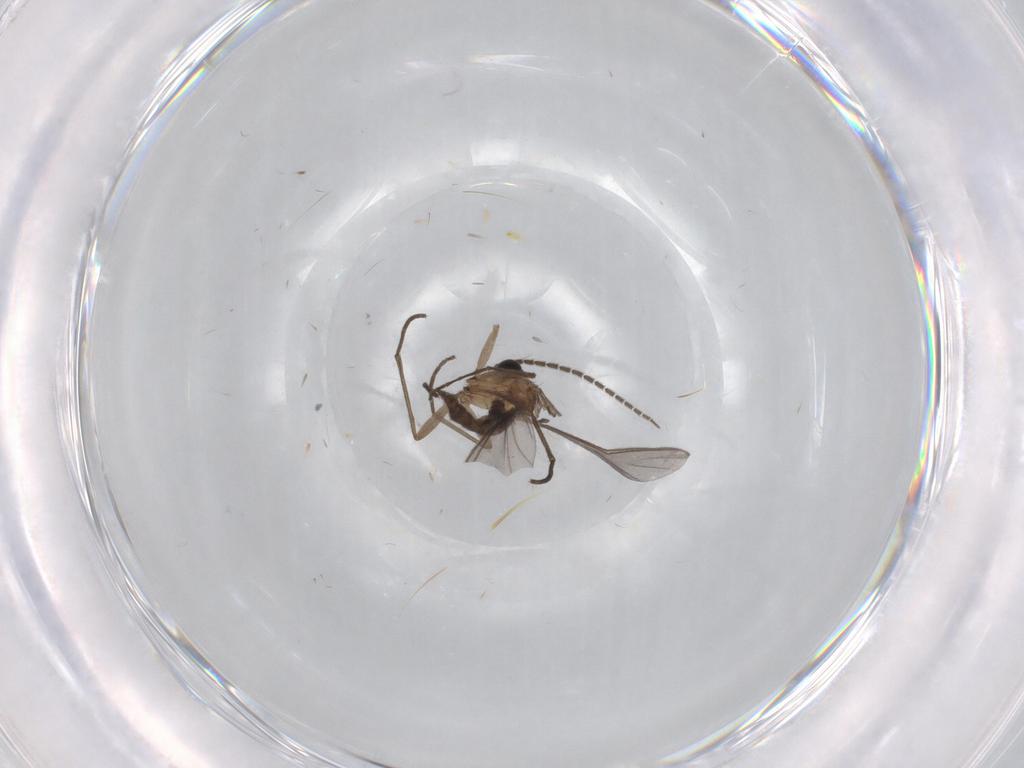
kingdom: Animalia
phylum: Arthropoda
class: Insecta
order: Diptera
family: Sciaridae
